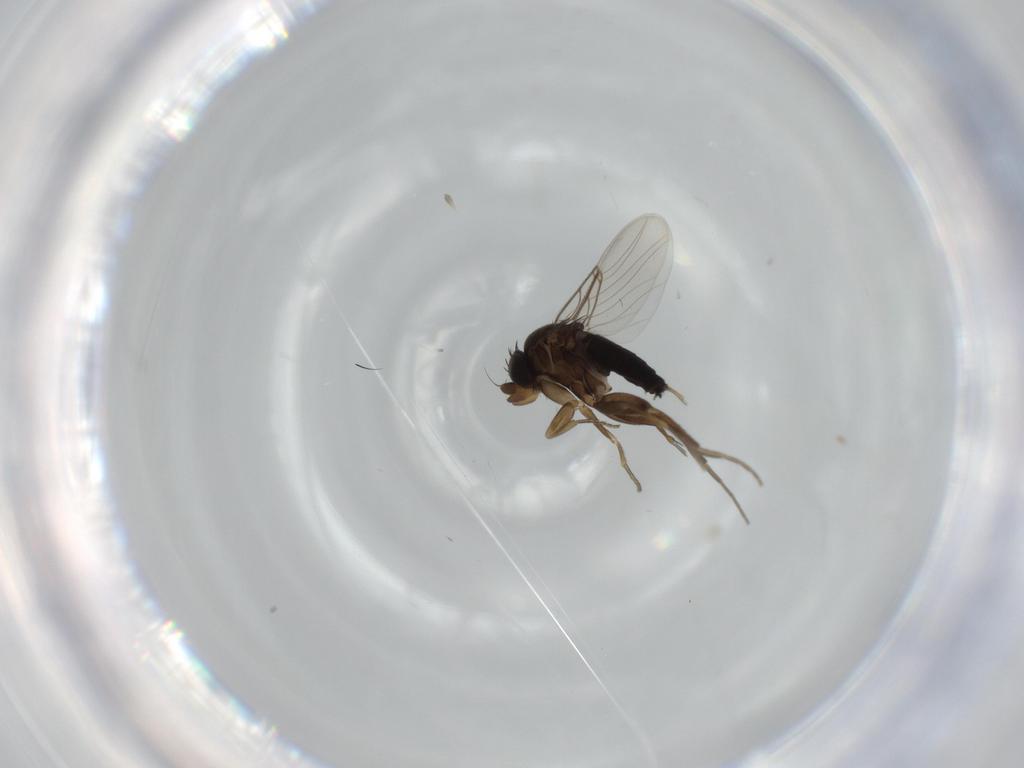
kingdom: Animalia
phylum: Arthropoda
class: Insecta
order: Diptera
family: Phoridae
